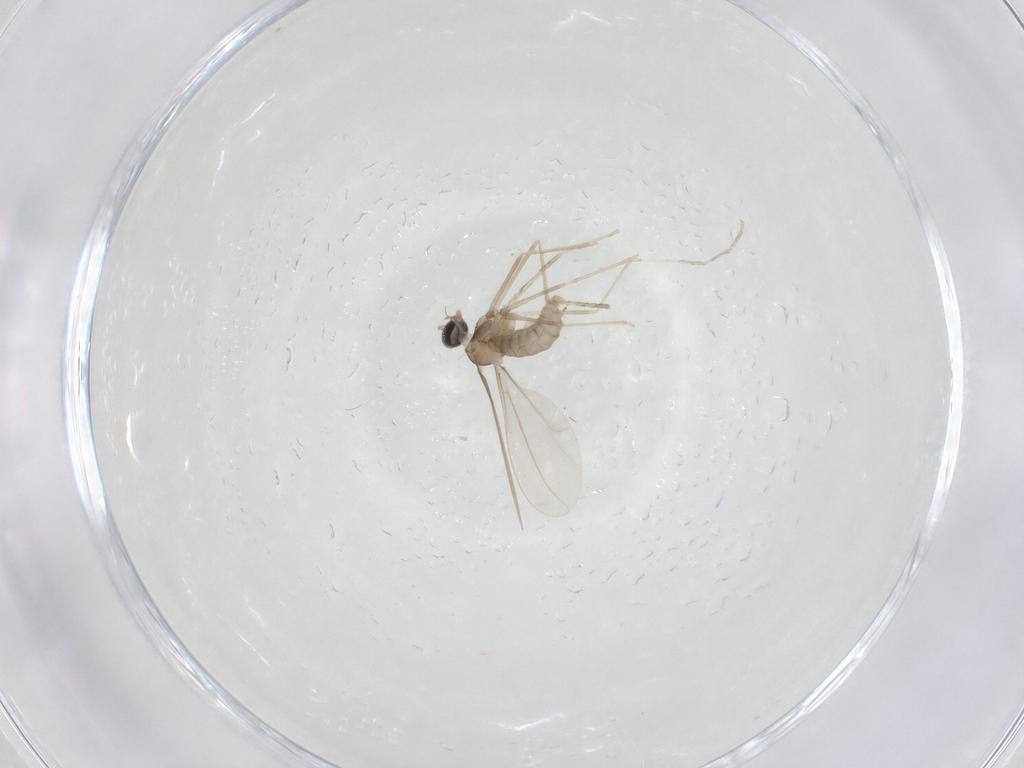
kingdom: Animalia
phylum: Arthropoda
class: Insecta
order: Diptera
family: Cecidomyiidae
